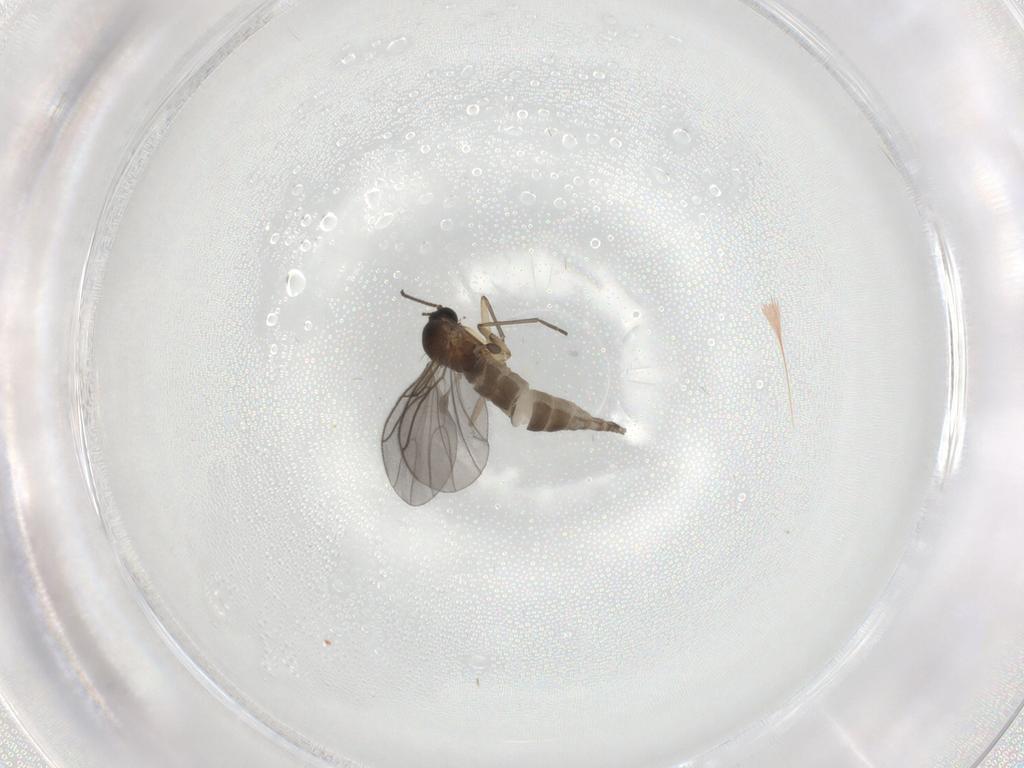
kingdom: Animalia
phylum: Arthropoda
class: Insecta
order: Diptera
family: Sciaridae
